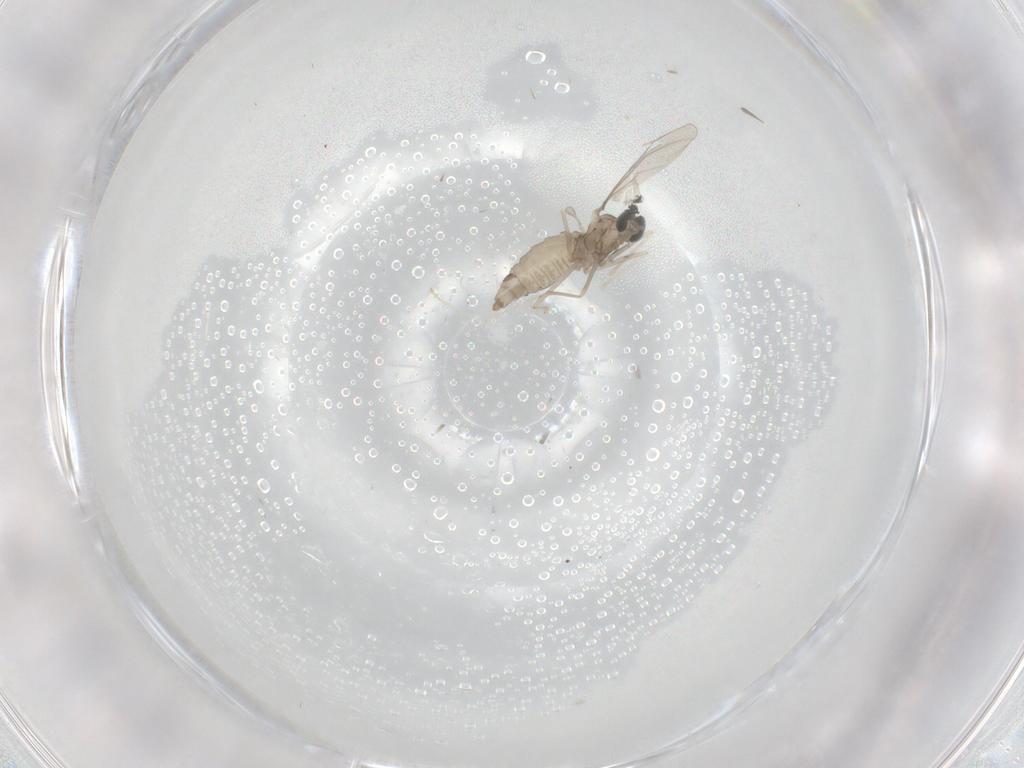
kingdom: Animalia
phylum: Arthropoda
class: Insecta
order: Diptera
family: Cecidomyiidae
